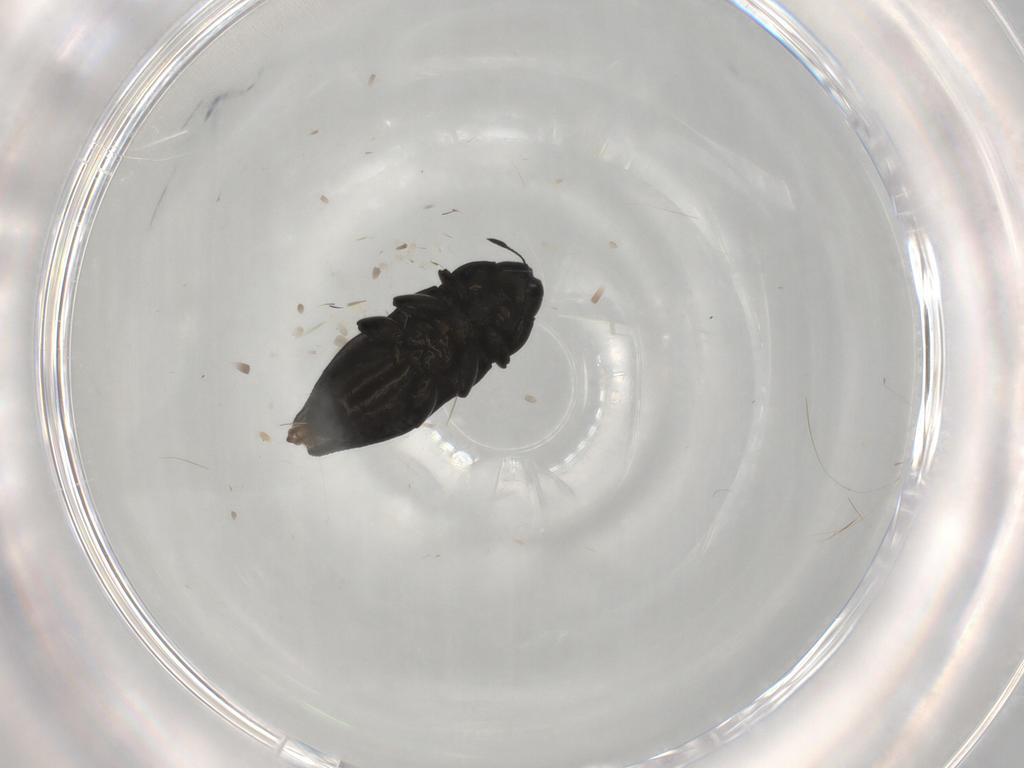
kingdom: Animalia
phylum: Arthropoda
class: Insecta
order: Coleoptera
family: Buprestidae
